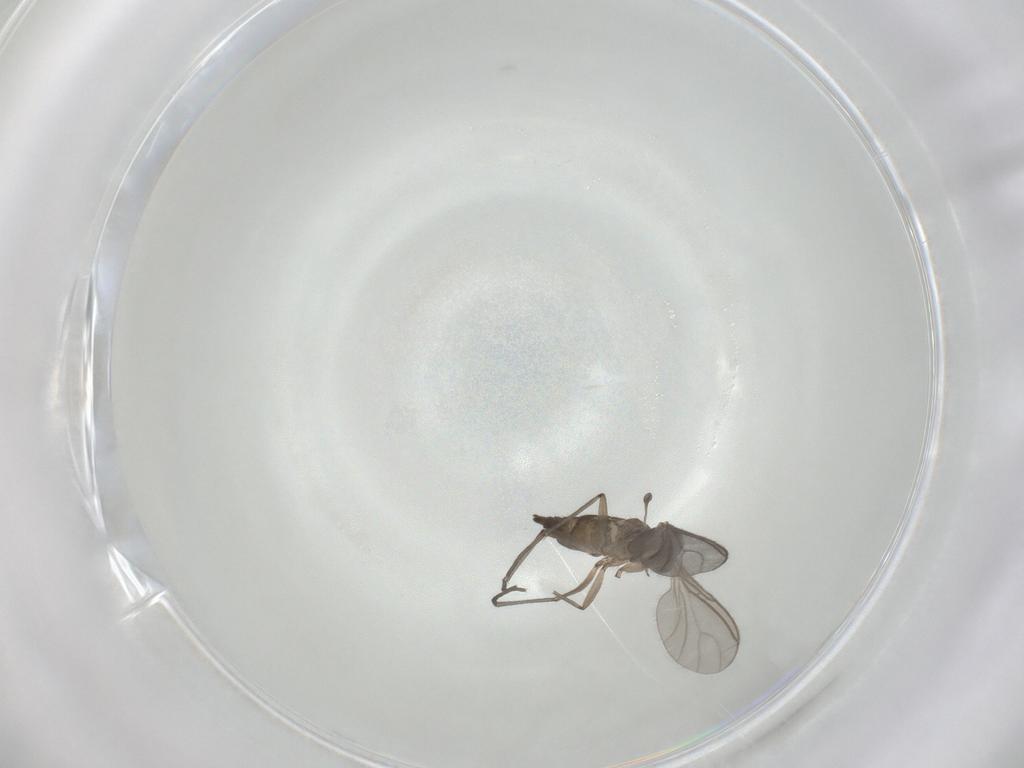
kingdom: Animalia
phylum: Arthropoda
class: Insecta
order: Diptera
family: Sciaridae
